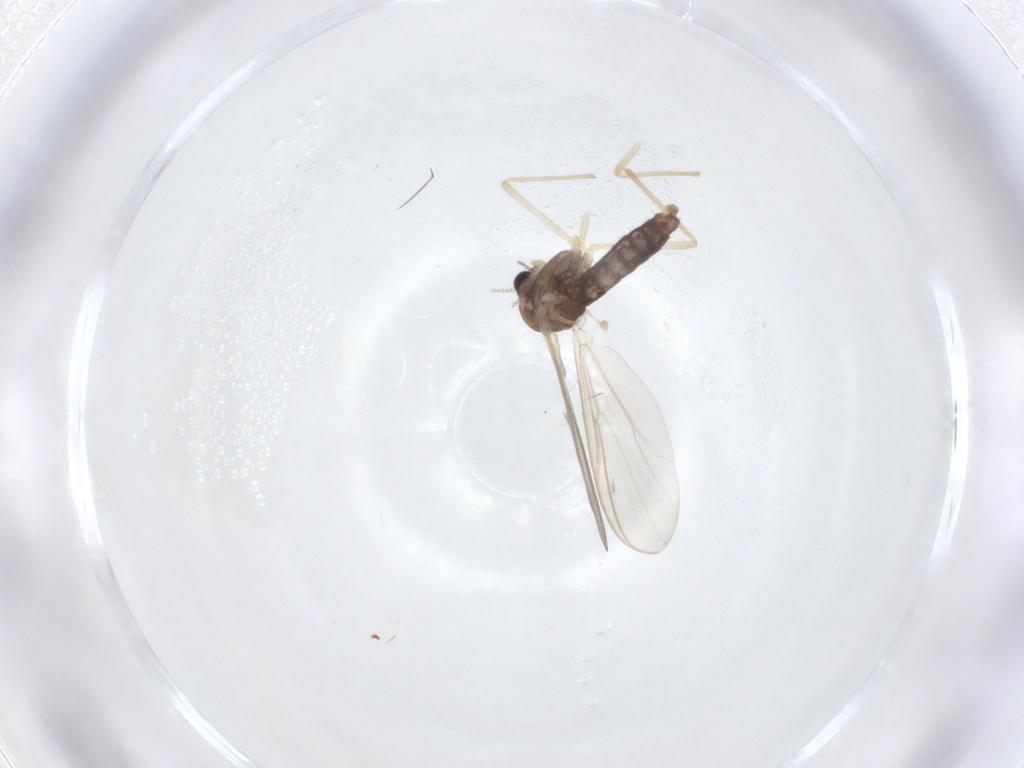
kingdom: Animalia
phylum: Arthropoda
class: Insecta
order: Diptera
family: Chironomidae
